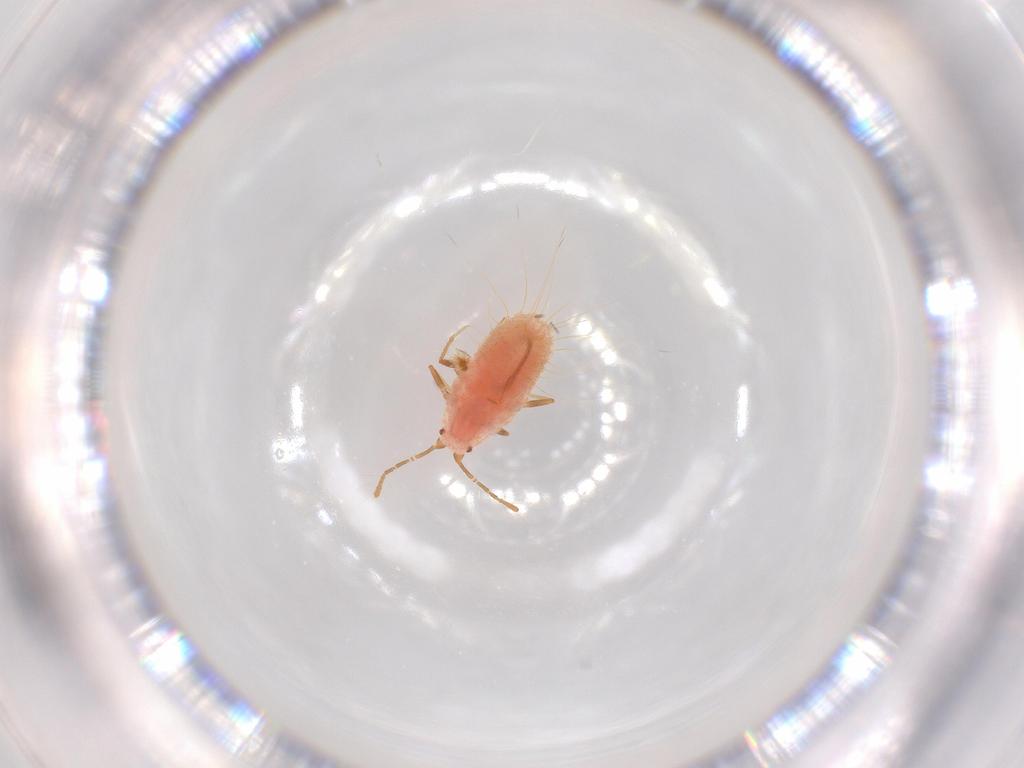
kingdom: Animalia
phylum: Arthropoda
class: Insecta
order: Hemiptera
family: Coccoidea_incertae_sedis
